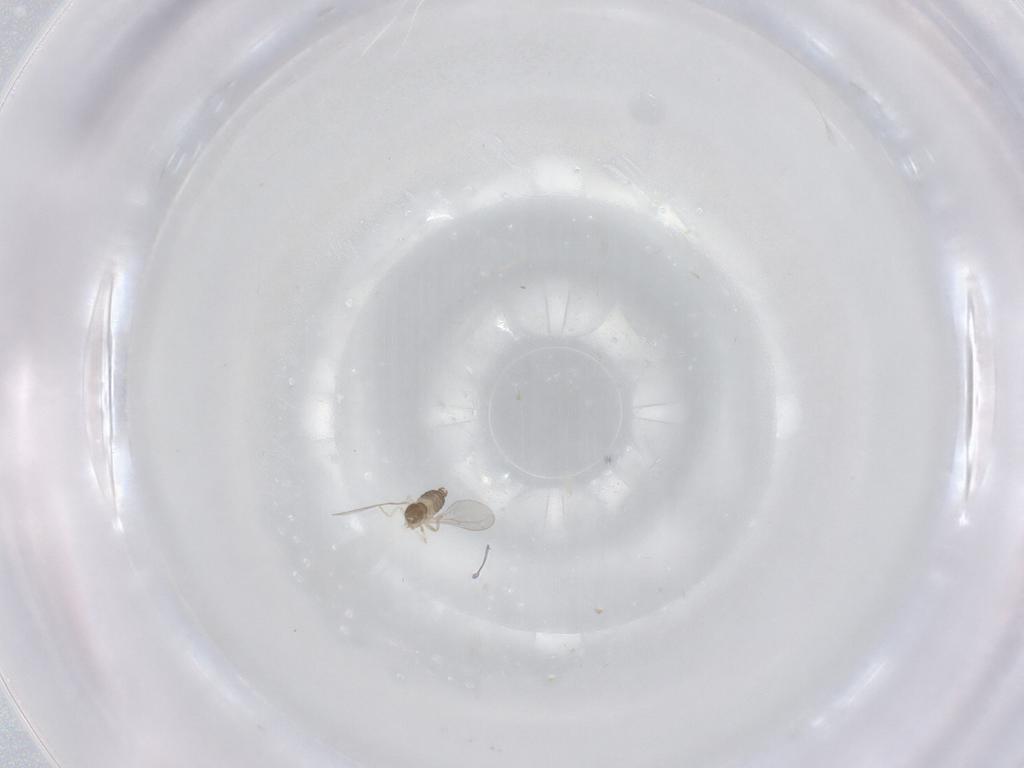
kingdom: Animalia
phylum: Arthropoda
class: Insecta
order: Diptera
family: Cecidomyiidae
